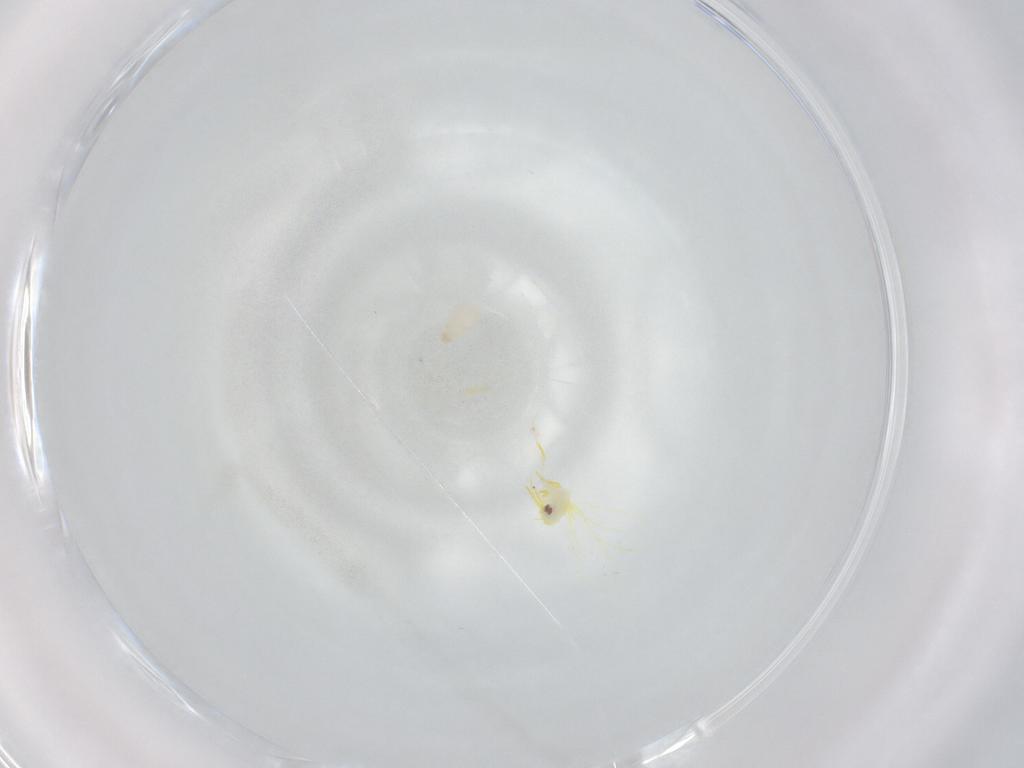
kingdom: Animalia
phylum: Arthropoda
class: Insecta
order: Hemiptera
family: Aleyrodidae
